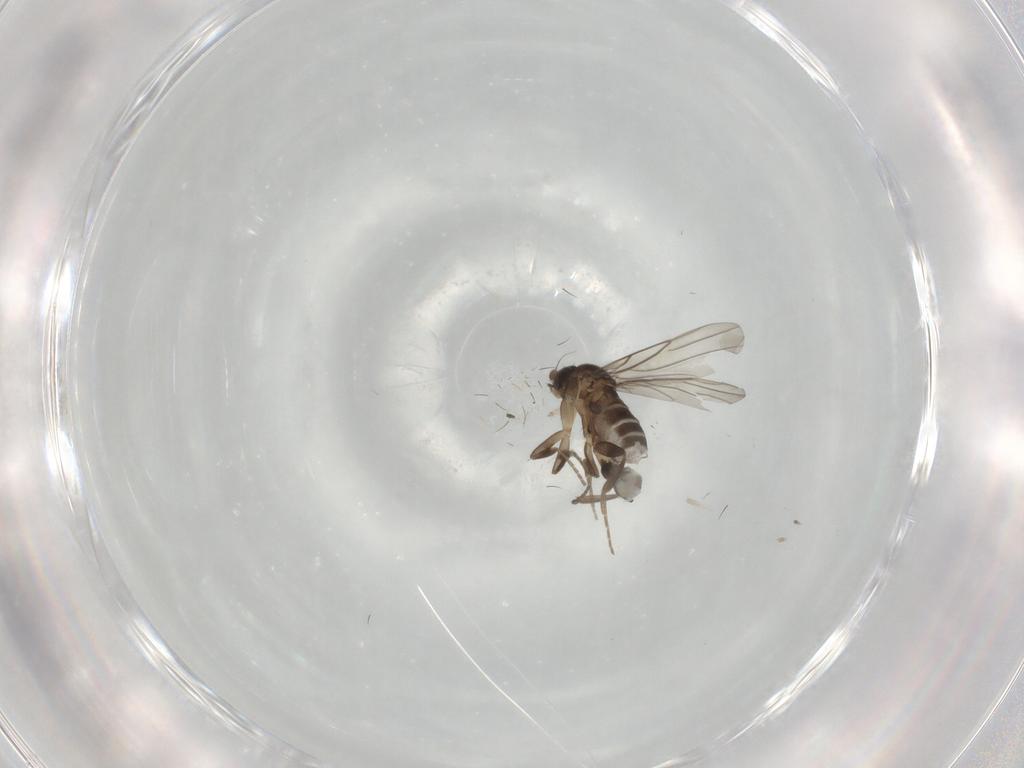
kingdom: Animalia
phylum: Arthropoda
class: Insecta
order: Diptera
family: Phoridae
